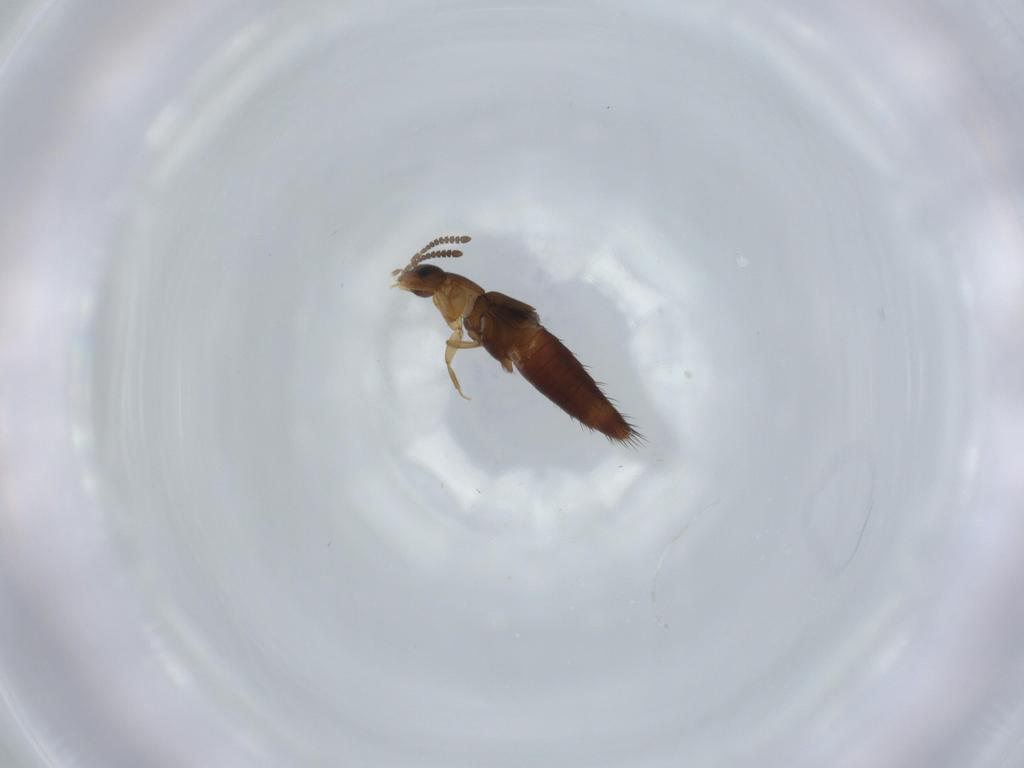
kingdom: Animalia
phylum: Arthropoda
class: Insecta
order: Coleoptera
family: Staphylinidae
